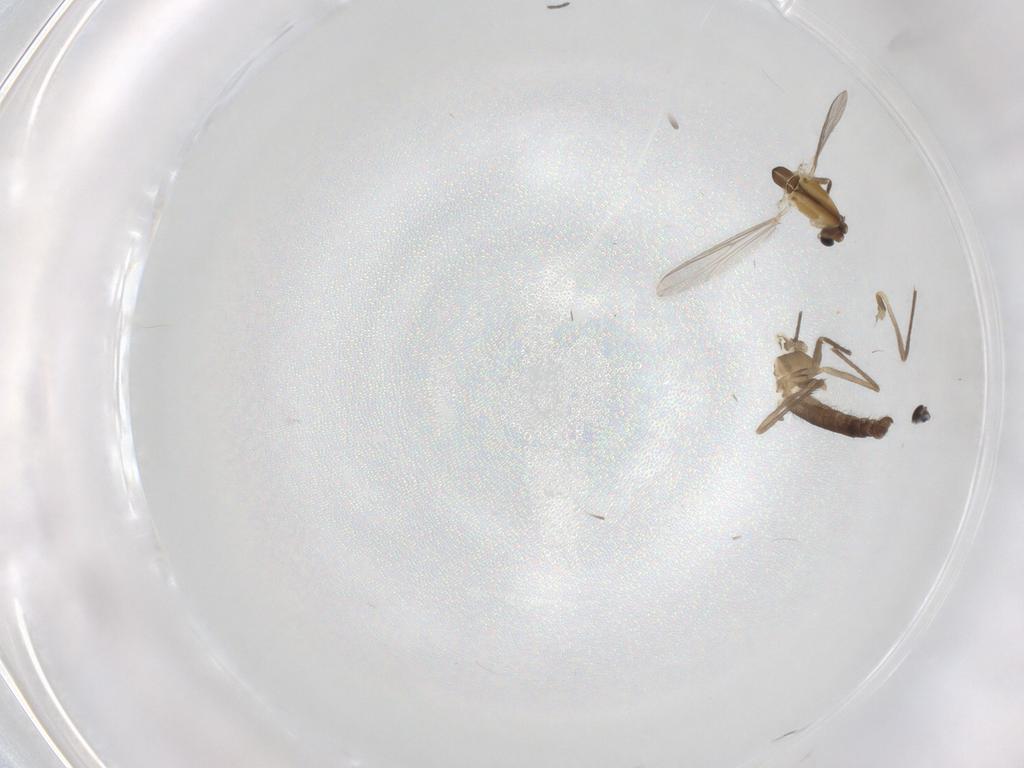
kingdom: Animalia
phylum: Arthropoda
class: Insecta
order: Diptera
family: Chironomidae
